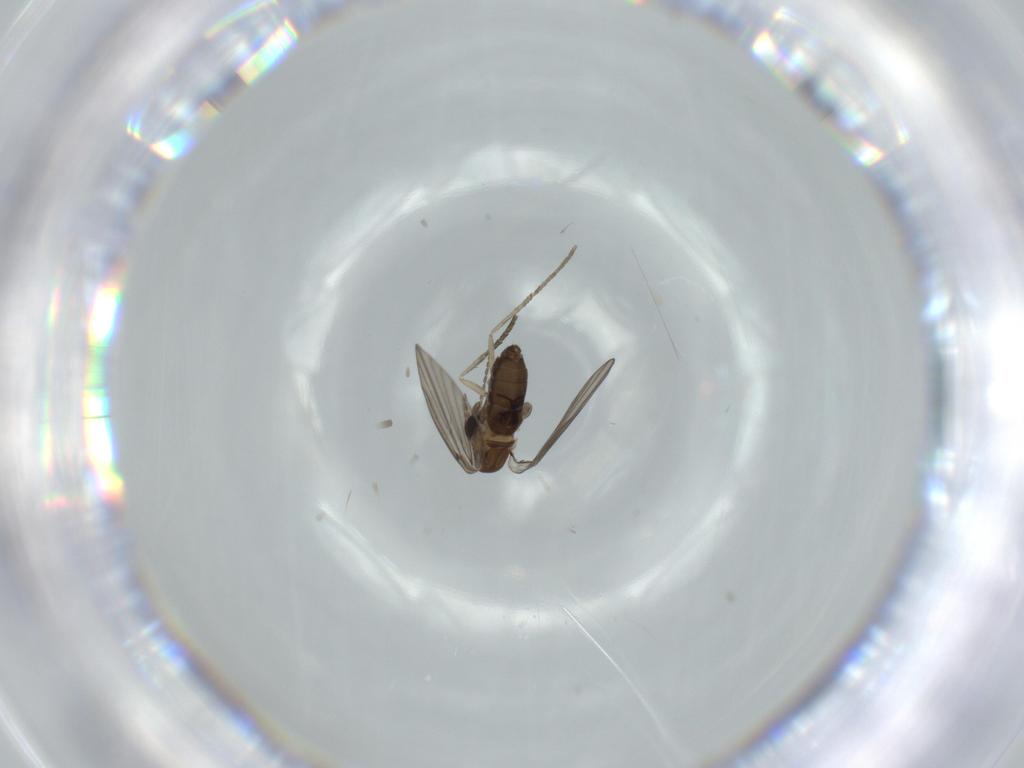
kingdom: Animalia
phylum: Arthropoda
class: Insecta
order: Diptera
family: Psychodidae
